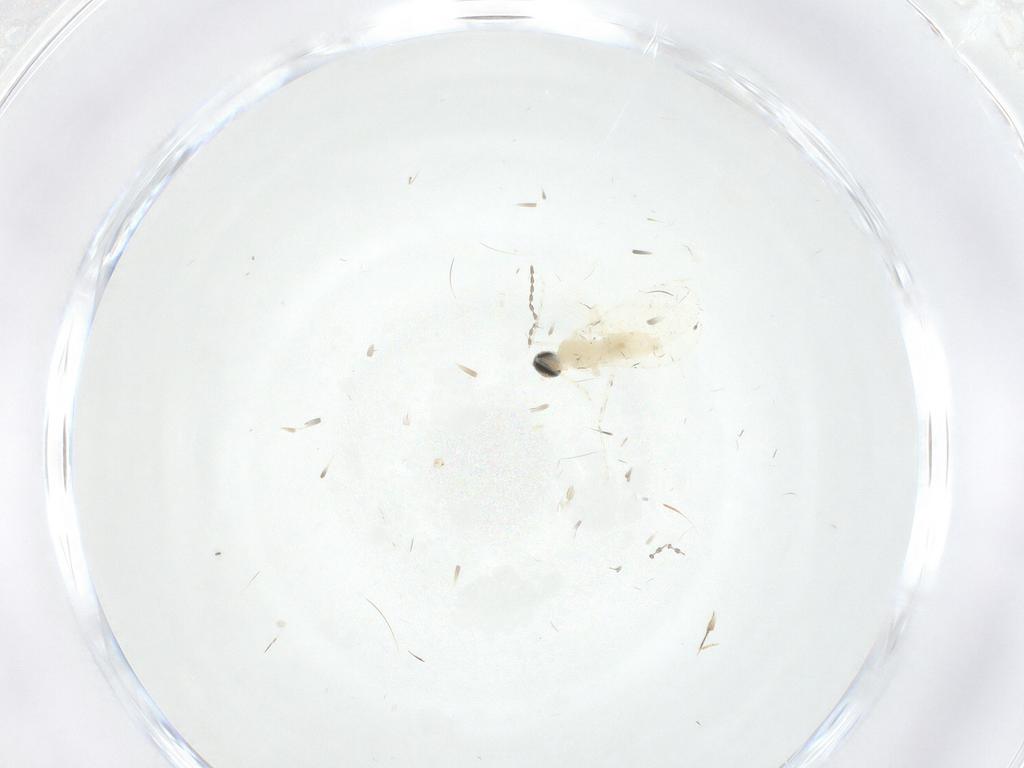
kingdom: Animalia
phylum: Arthropoda
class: Insecta
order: Diptera
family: Cecidomyiidae
